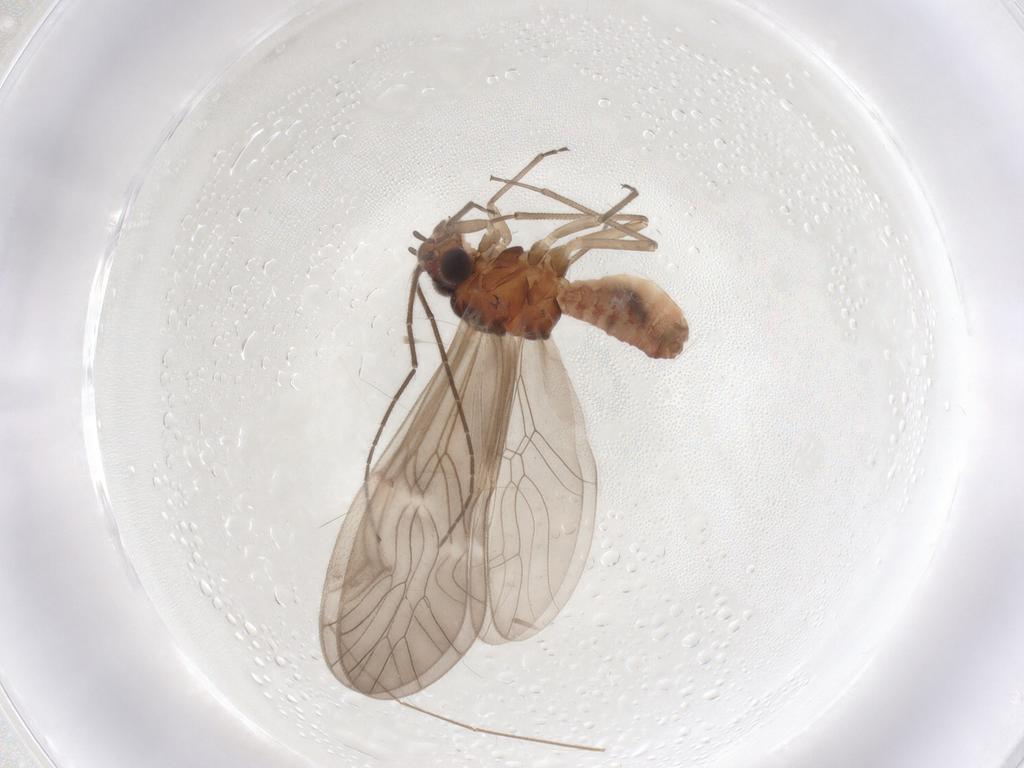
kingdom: Animalia
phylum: Arthropoda
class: Insecta
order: Psocodea
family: Caeciliusidae
